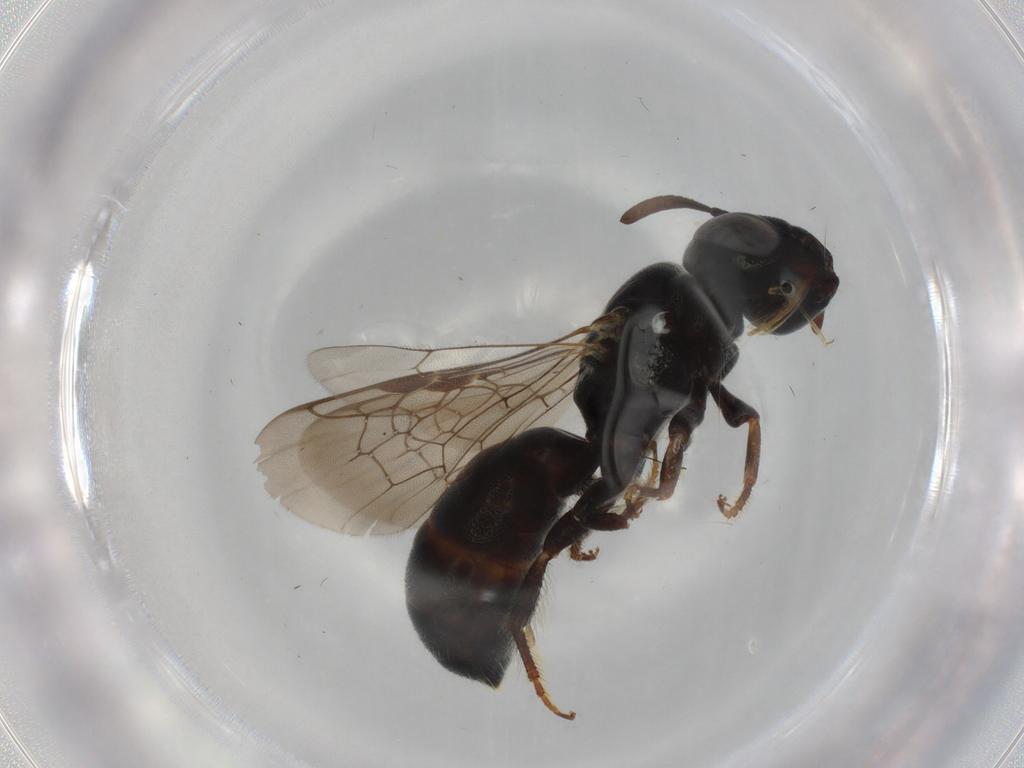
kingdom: Animalia
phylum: Arthropoda
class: Insecta
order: Hymenoptera
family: Apidae
